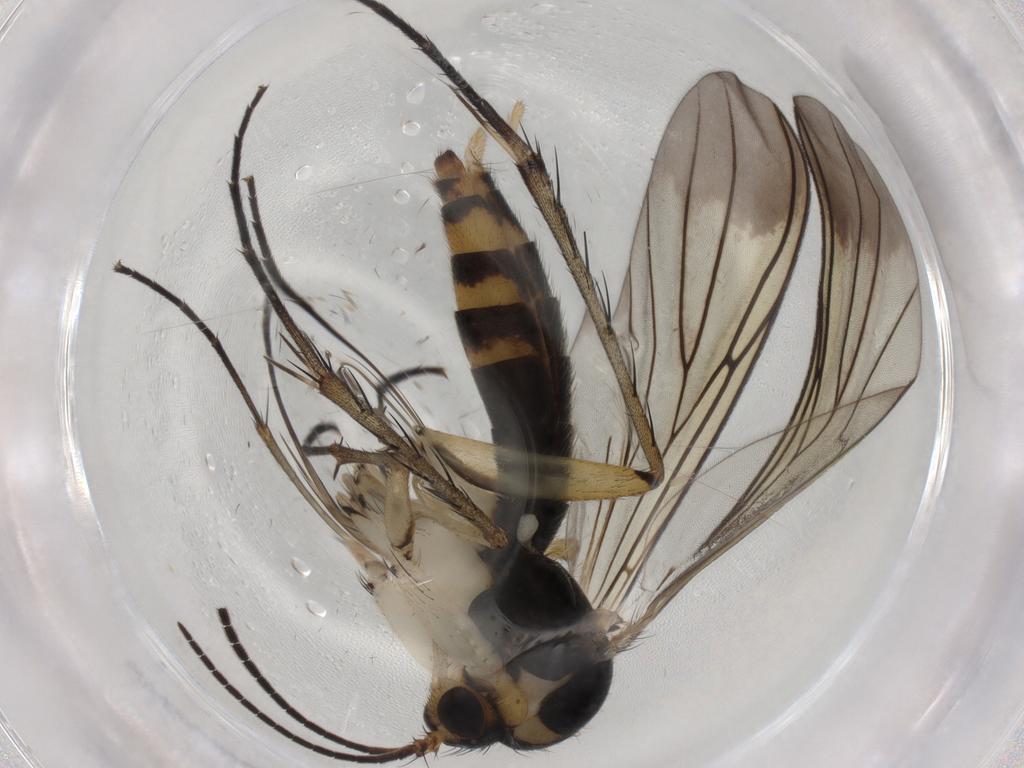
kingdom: Animalia
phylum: Arthropoda
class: Insecta
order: Diptera
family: Mycetophilidae
